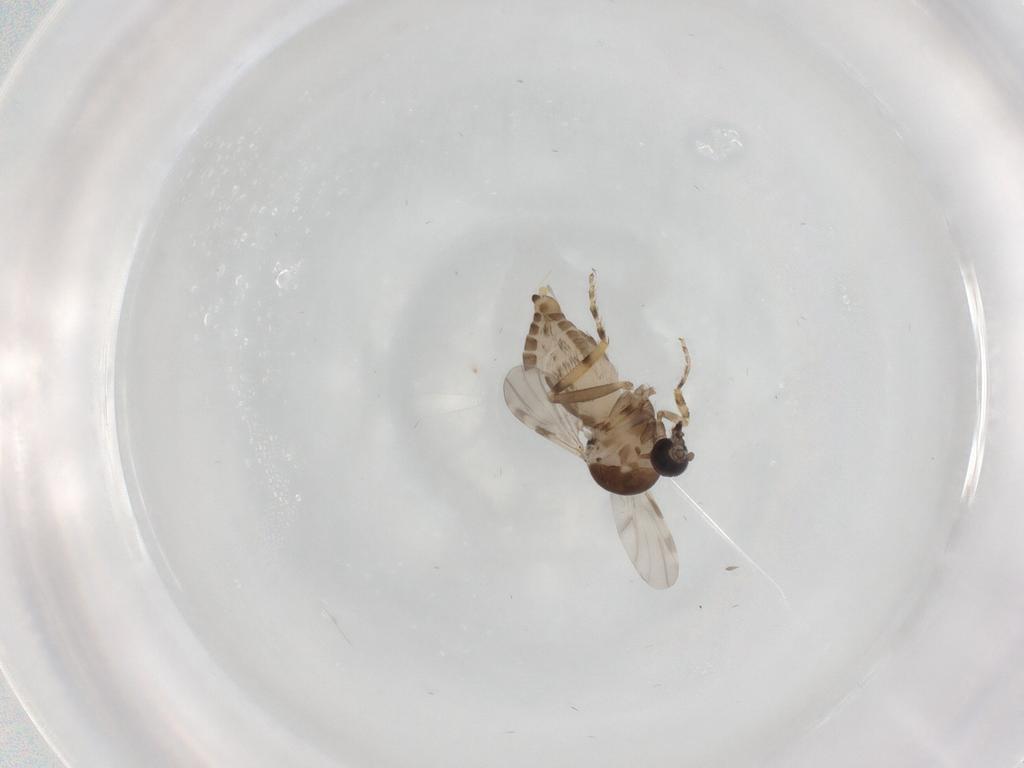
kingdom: Animalia
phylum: Arthropoda
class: Insecta
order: Diptera
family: Ceratopogonidae
